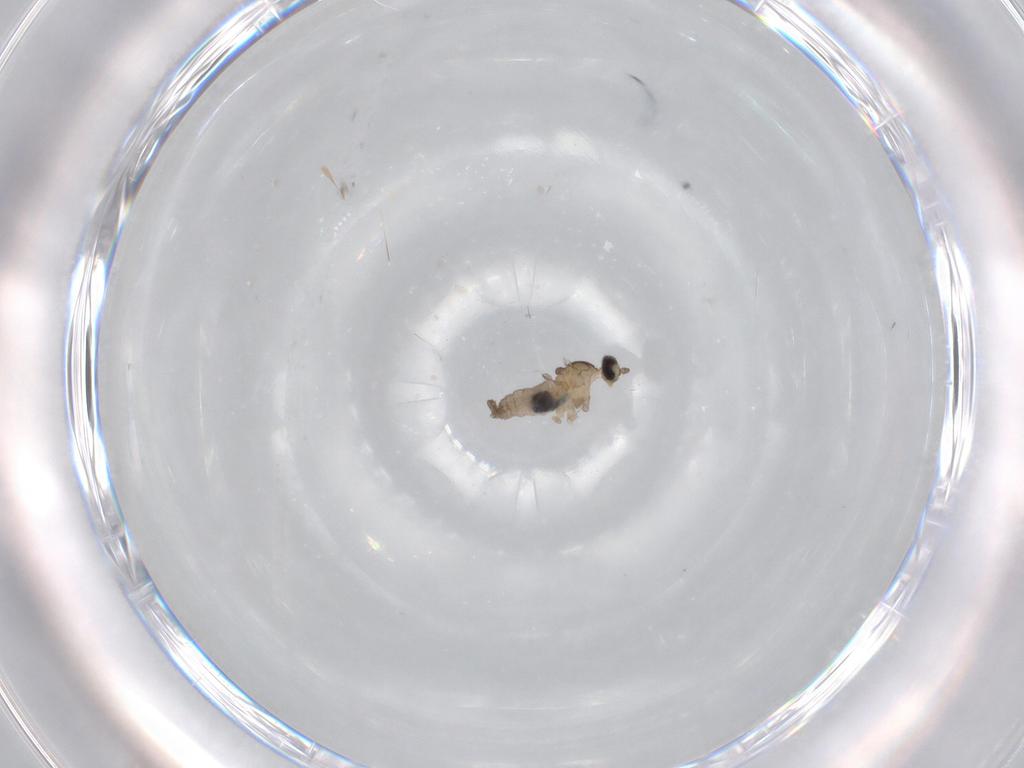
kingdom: Animalia
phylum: Arthropoda
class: Insecta
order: Diptera
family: Cecidomyiidae
